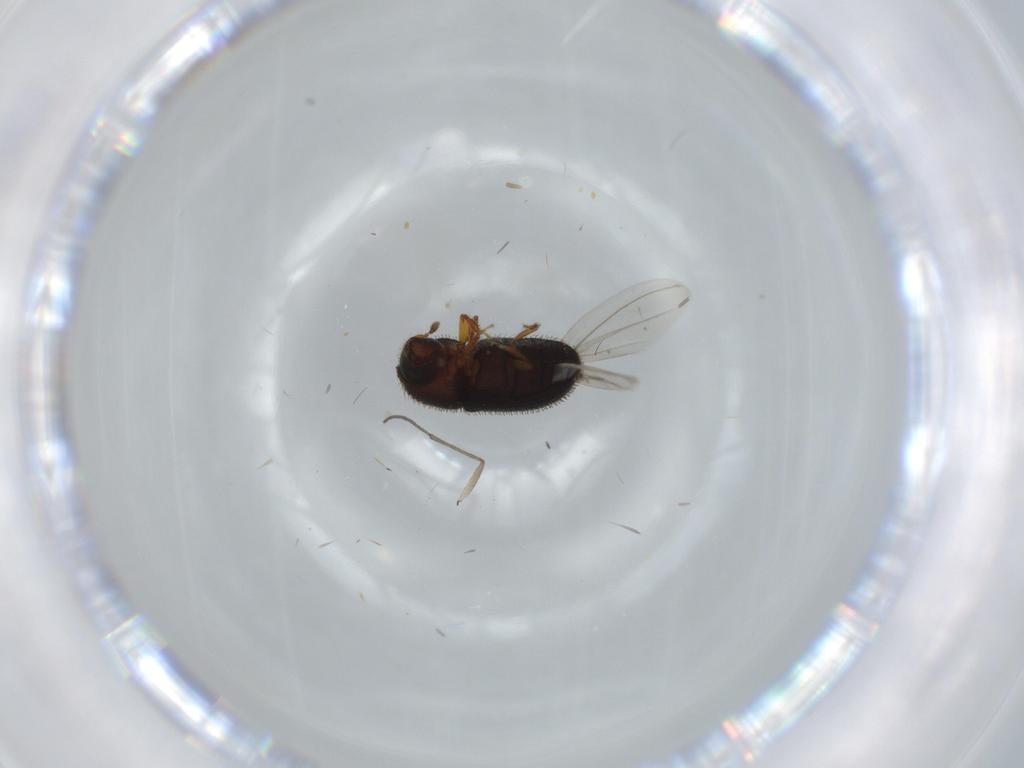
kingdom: Animalia
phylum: Arthropoda
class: Insecta
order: Coleoptera
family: Curculionidae
